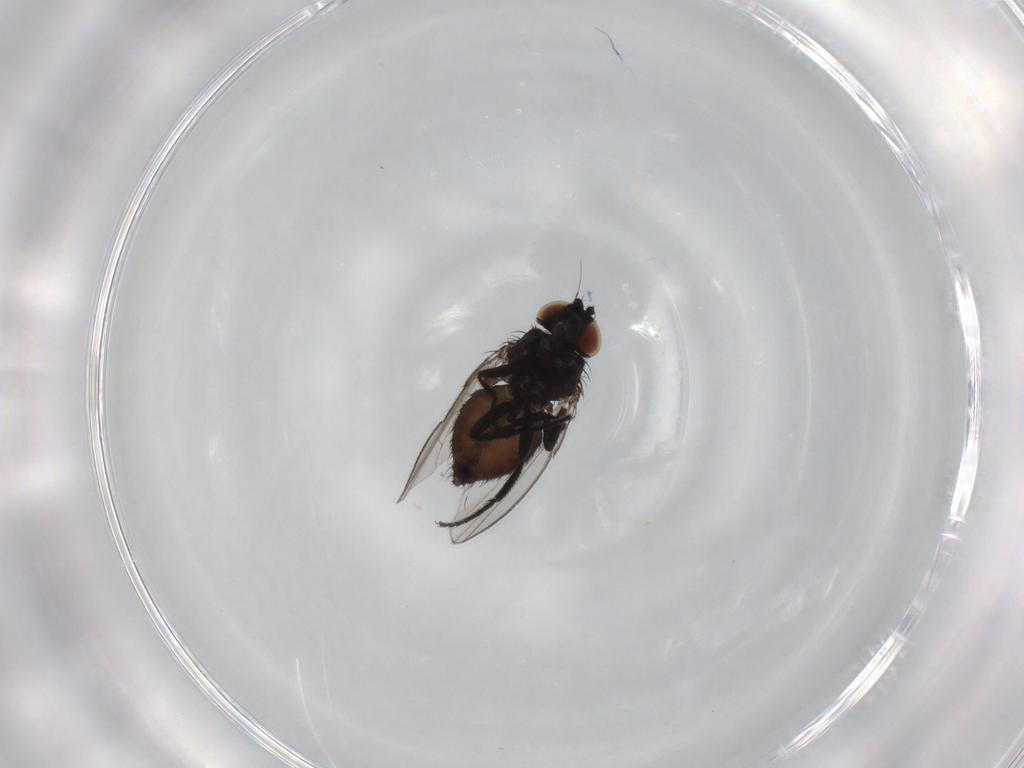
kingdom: Animalia
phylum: Arthropoda
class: Insecta
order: Diptera
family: Milichiidae
